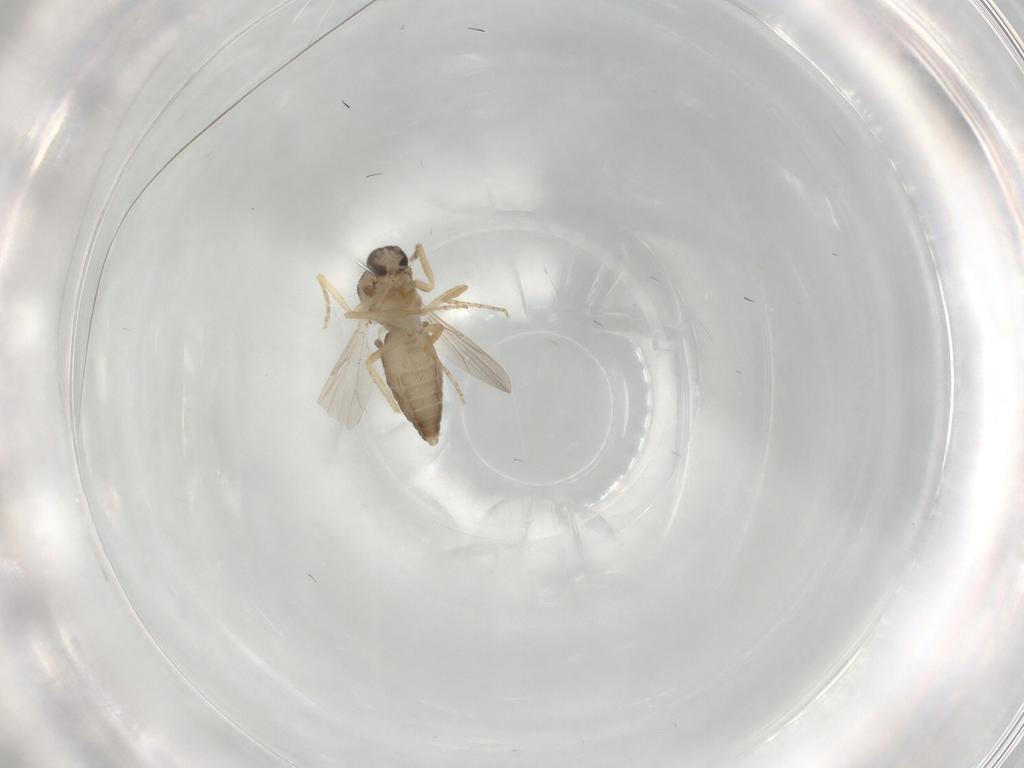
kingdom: Animalia
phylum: Arthropoda
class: Insecta
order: Diptera
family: Ceratopogonidae
